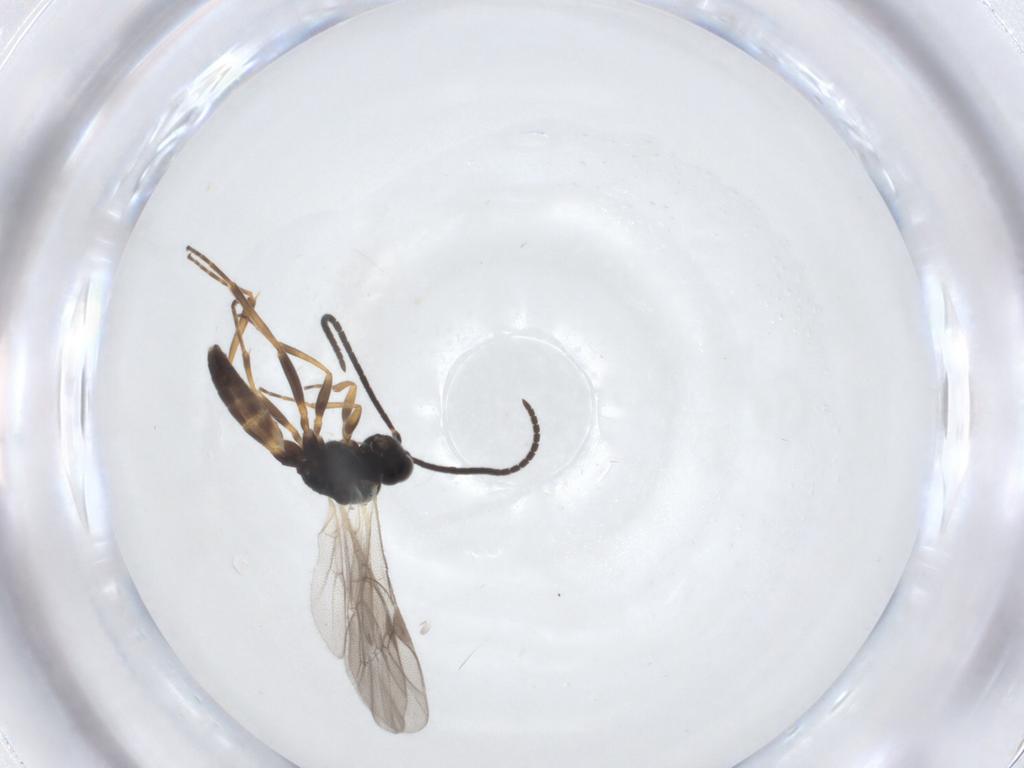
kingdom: Animalia
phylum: Arthropoda
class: Insecta
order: Hymenoptera
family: Ichneumonidae
